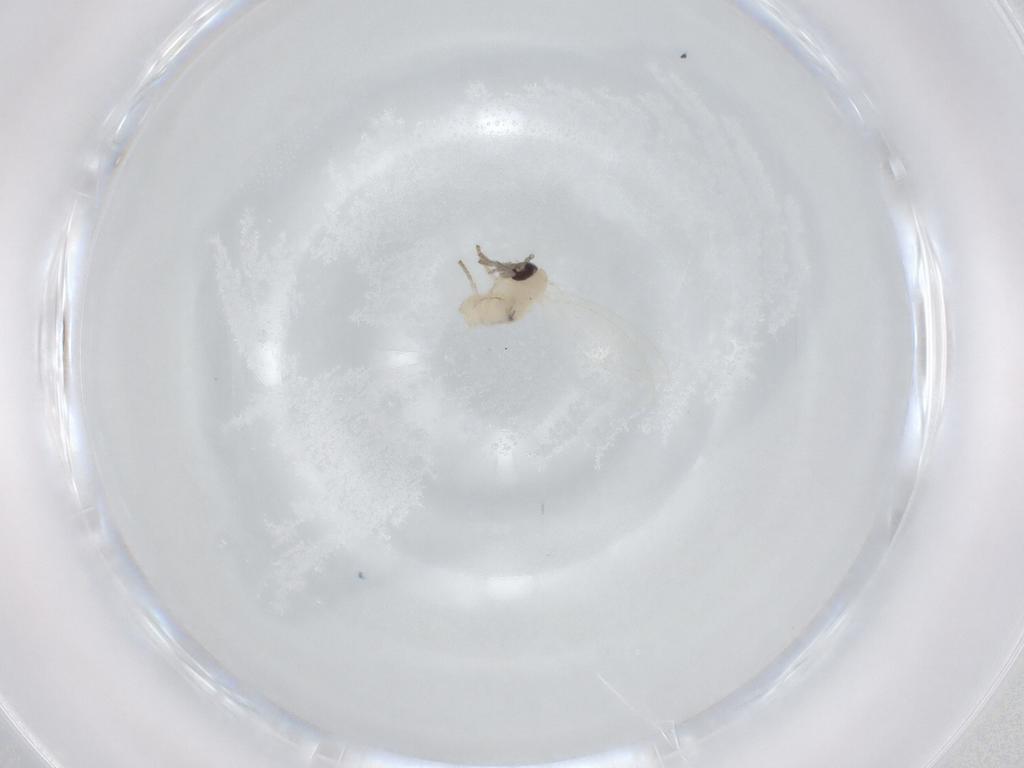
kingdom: Animalia
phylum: Arthropoda
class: Insecta
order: Diptera
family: Psychodidae
